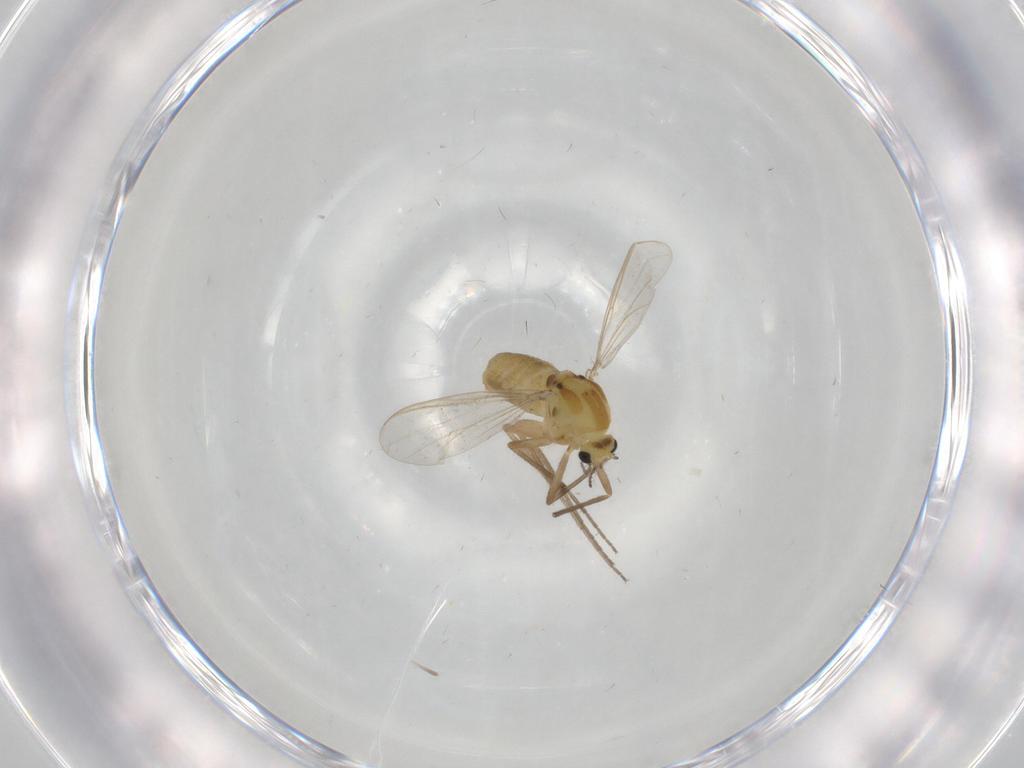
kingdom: Animalia
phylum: Arthropoda
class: Insecta
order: Diptera
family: Chironomidae
